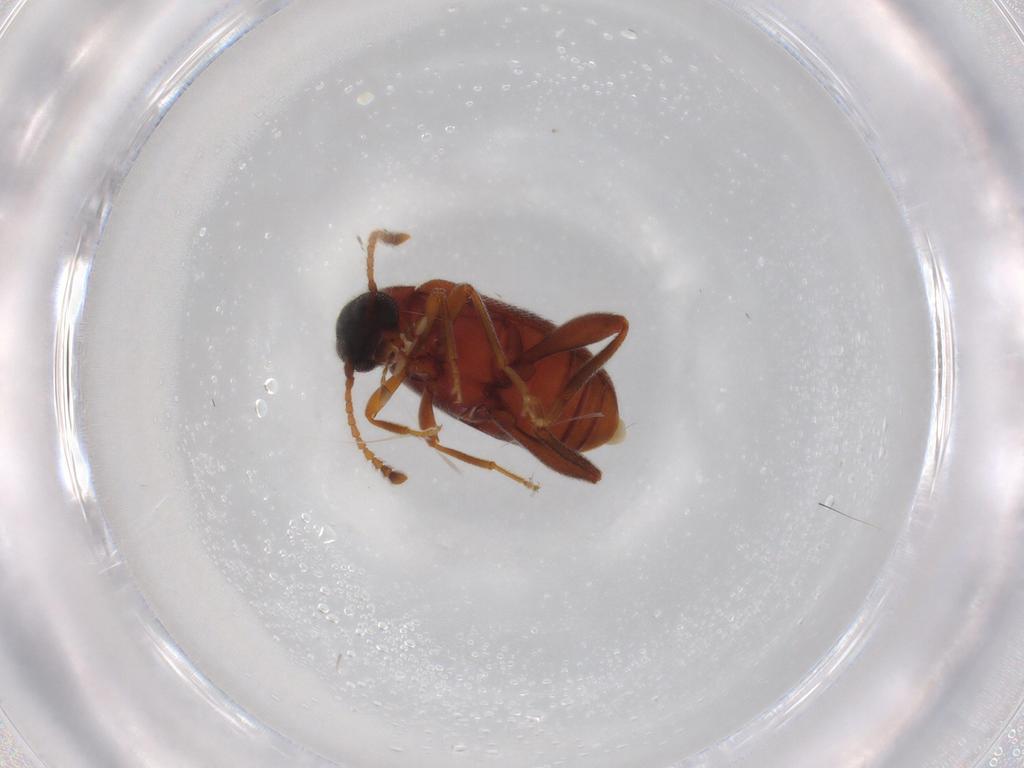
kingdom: Animalia
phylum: Arthropoda
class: Insecta
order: Coleoptera
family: Aderidae
